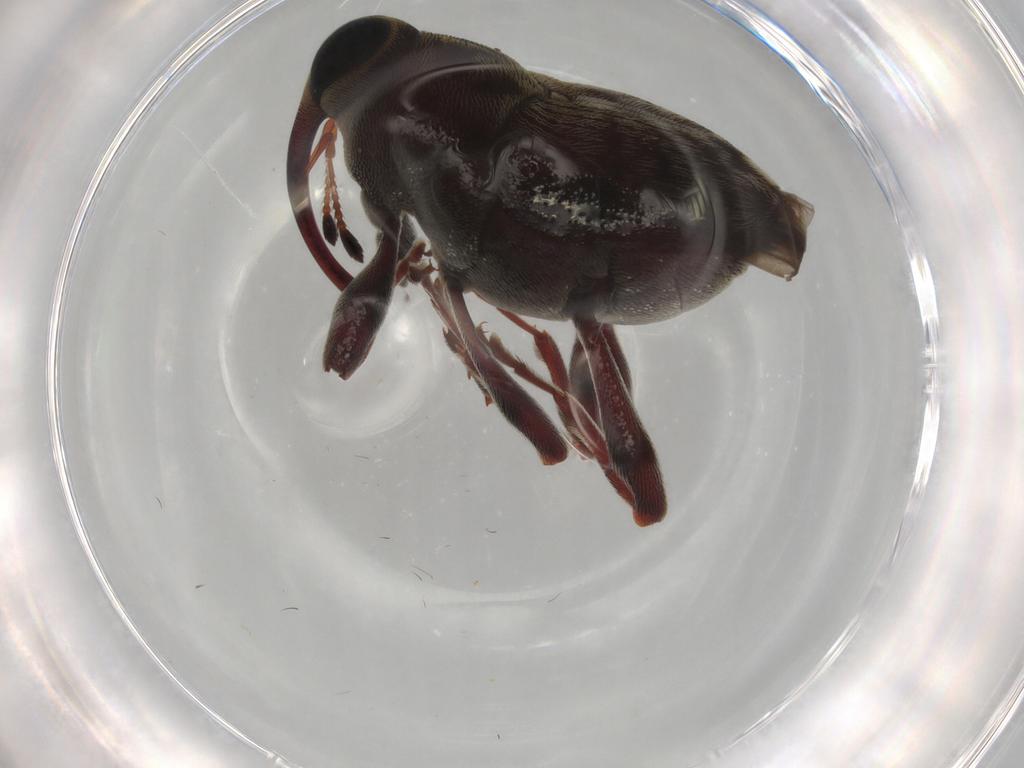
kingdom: Animalia
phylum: Arthropoda
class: Insecta
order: Coleoptera
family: Curculionidae
